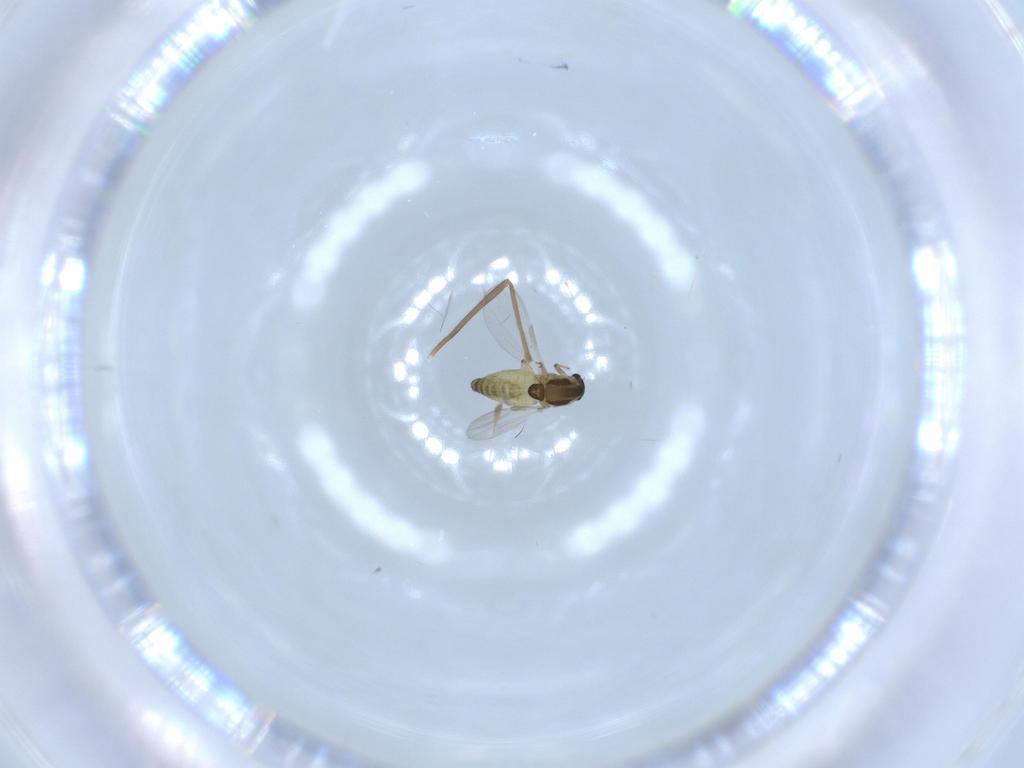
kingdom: Animalia
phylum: Arthropoda
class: Insecta
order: Diptera
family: Chironomidae
